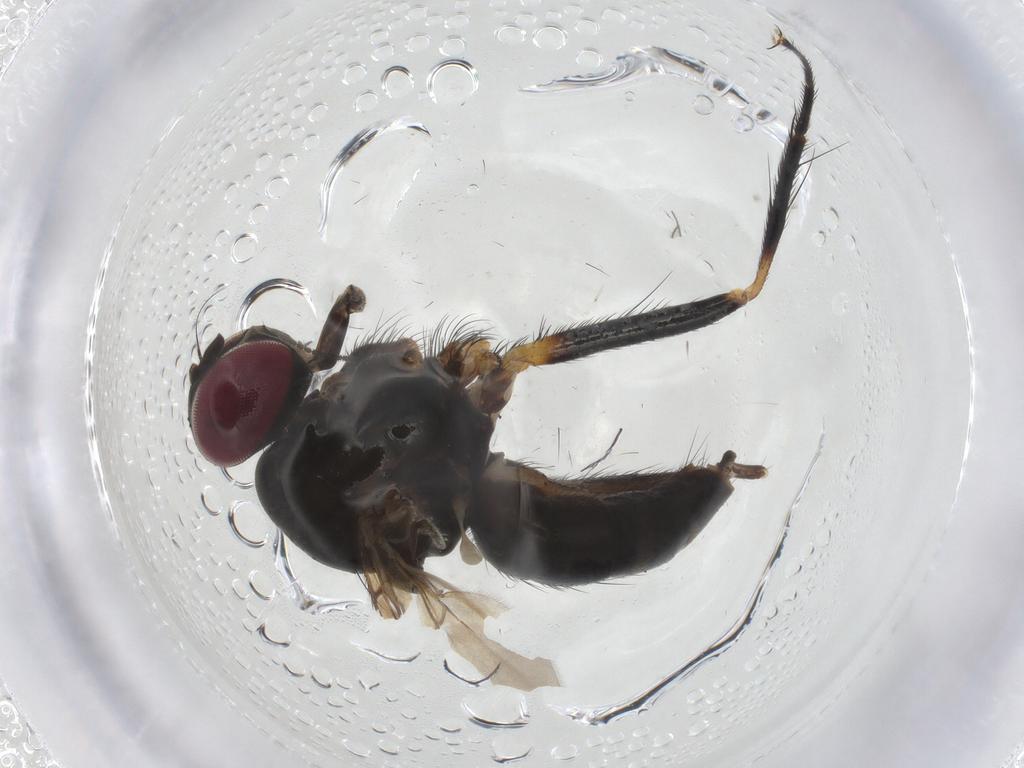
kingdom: Animalia
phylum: Arthropoda
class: Insecta
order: Diptera
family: Anthomyiidae
